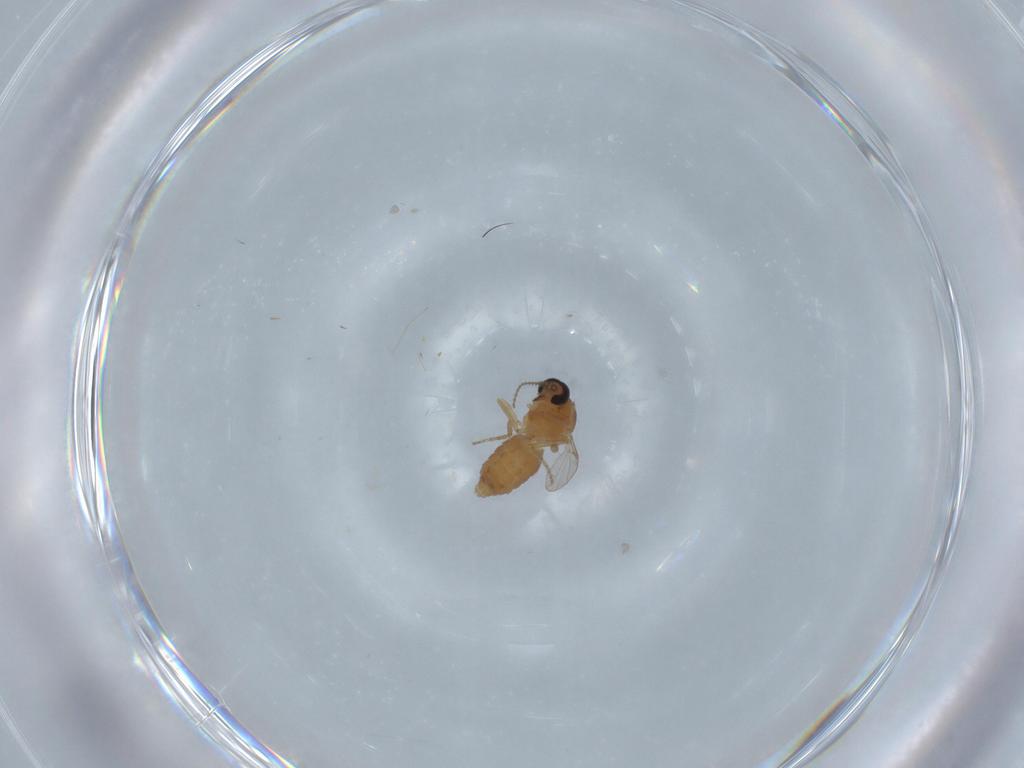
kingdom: Animalia
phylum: Arthropoda
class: Insecta
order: Diptera
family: Ceratopogonidae
